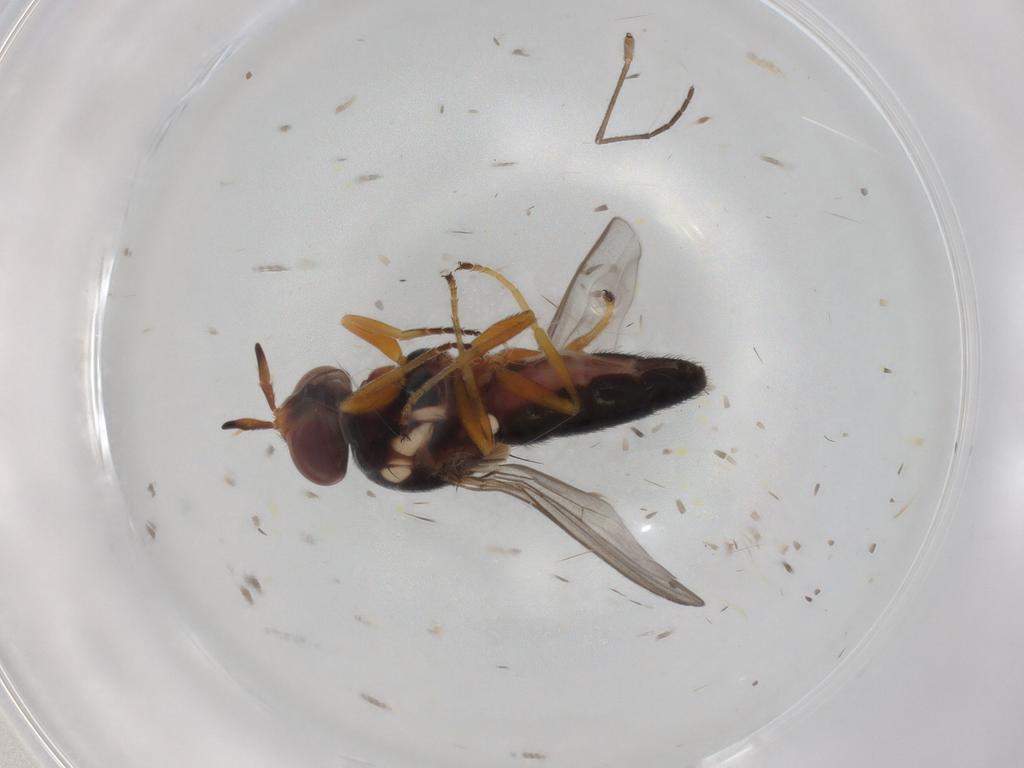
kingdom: Animalia
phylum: Arthropoda
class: Insecta
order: Diptera
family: Chloropidae
